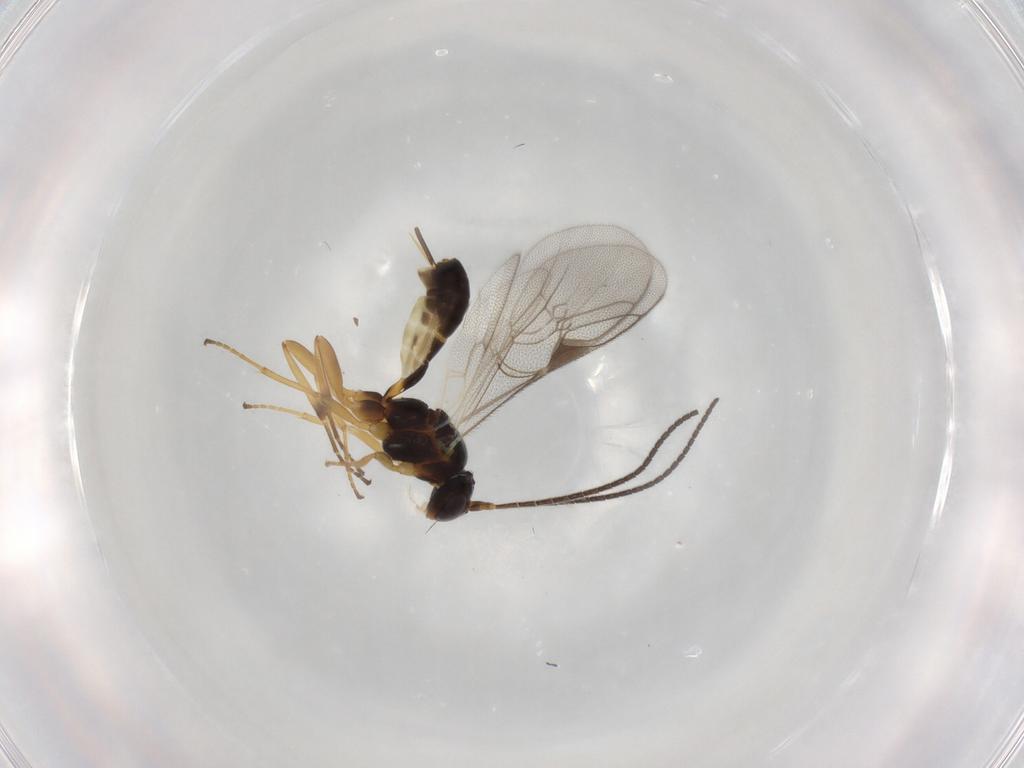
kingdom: Animalia
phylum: Arthropoda
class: Insecta
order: Hymenoptera
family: Ichneumonidae
